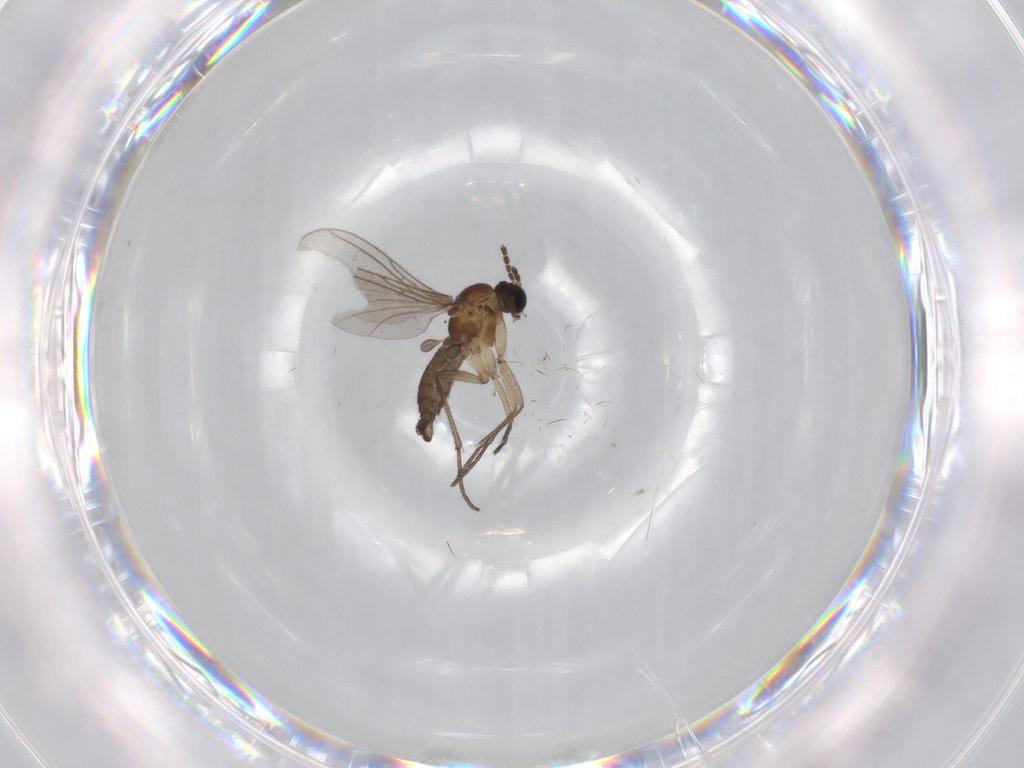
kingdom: Animalia
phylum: Arthropoda
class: Insecta
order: Diptera
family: Sciaridae
